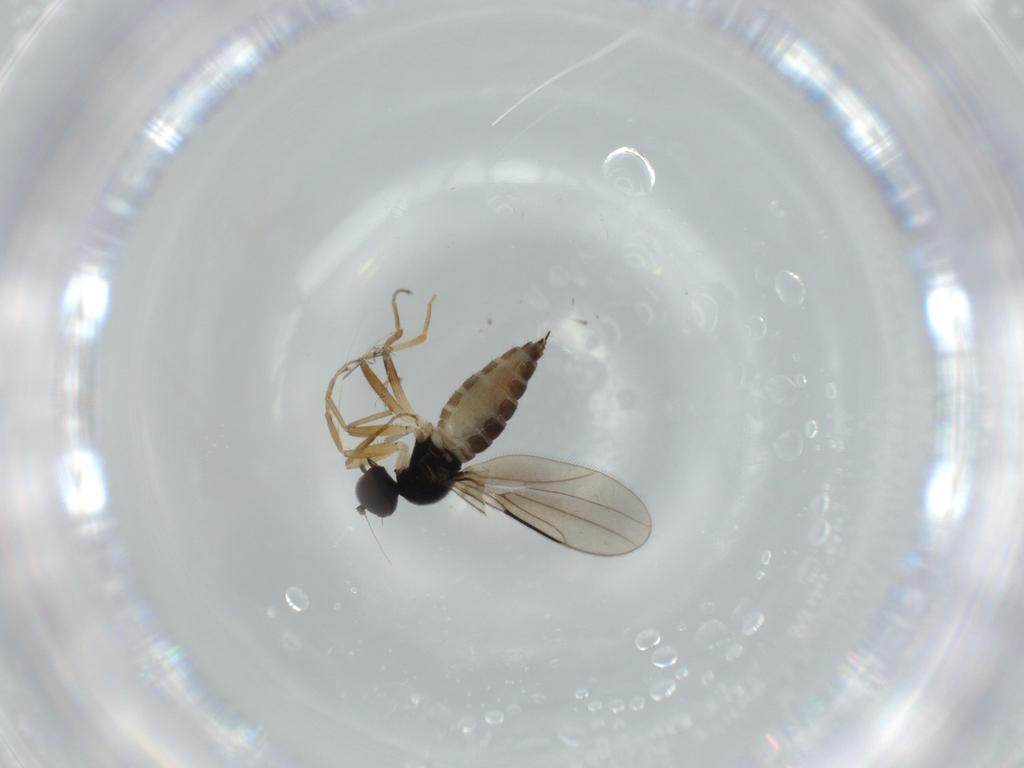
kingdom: Animalia
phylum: Arthropoda
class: Insecta
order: Diptera
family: Hybotidae
